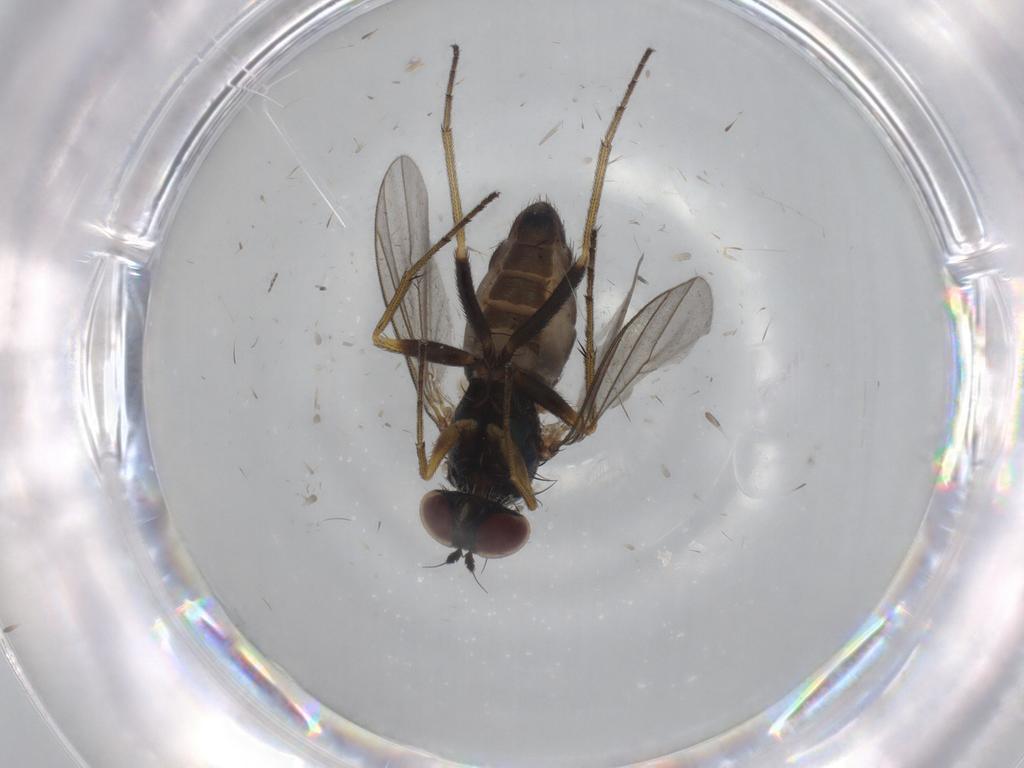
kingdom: Animalia
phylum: Arthropoda
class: Insecta
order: Diptera
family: Dolichopodidae
